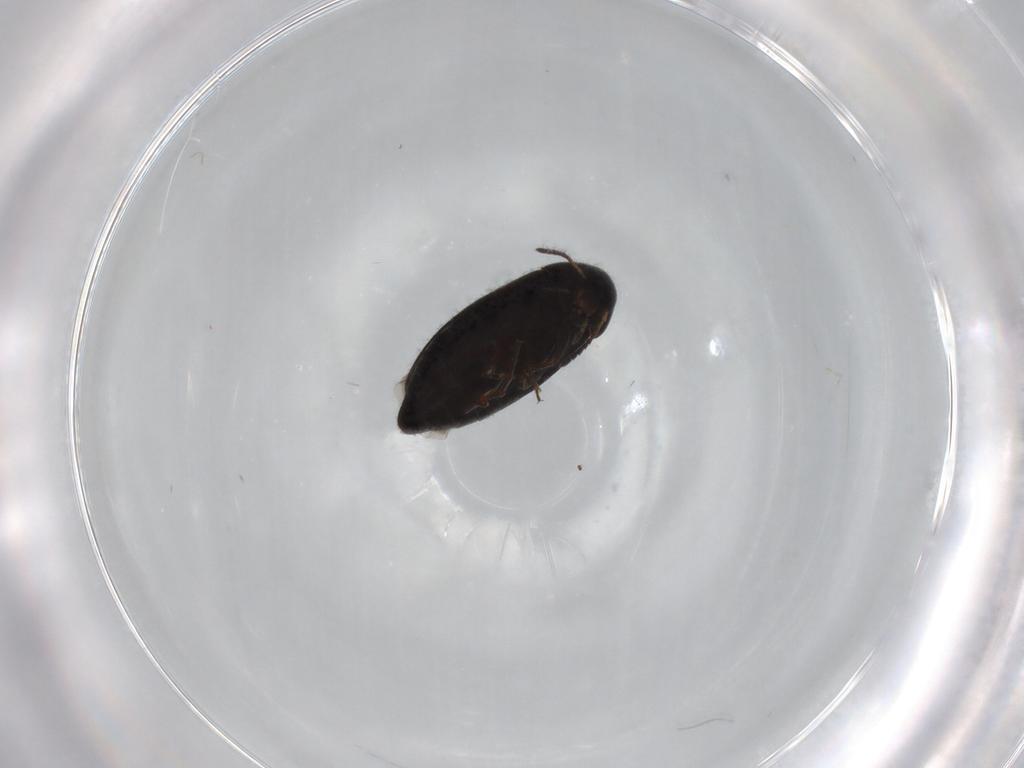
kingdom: Animalia
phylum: Arthropoda
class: Insecta
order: Coleoptera
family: Scraptiidae
